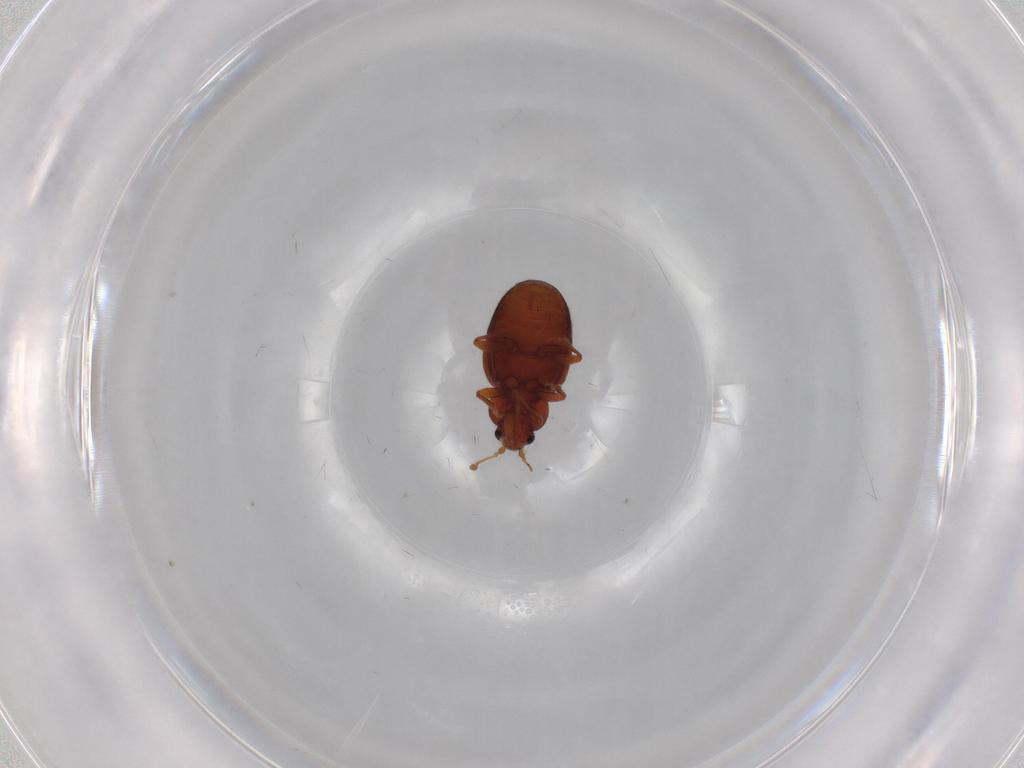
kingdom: Animalia
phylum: Arthropoda
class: Insecta
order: Coleoptera
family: Latridiidae
